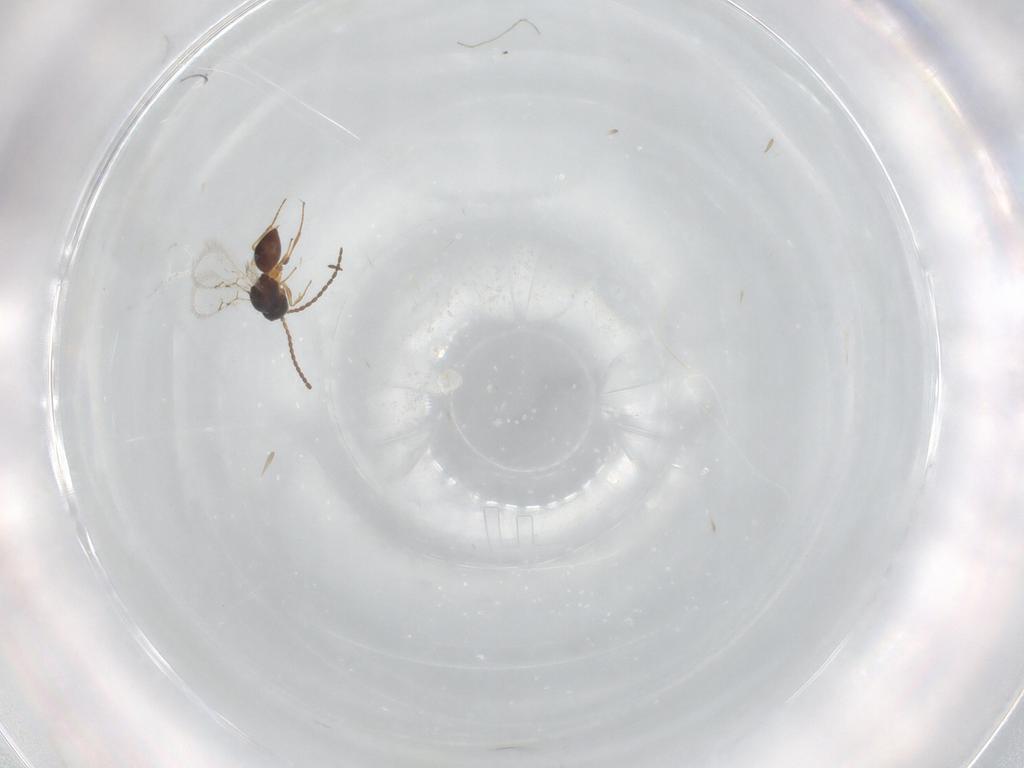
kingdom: Animalia
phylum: Arthropoda
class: Insecta
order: Hymenoptera
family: Figitidae
